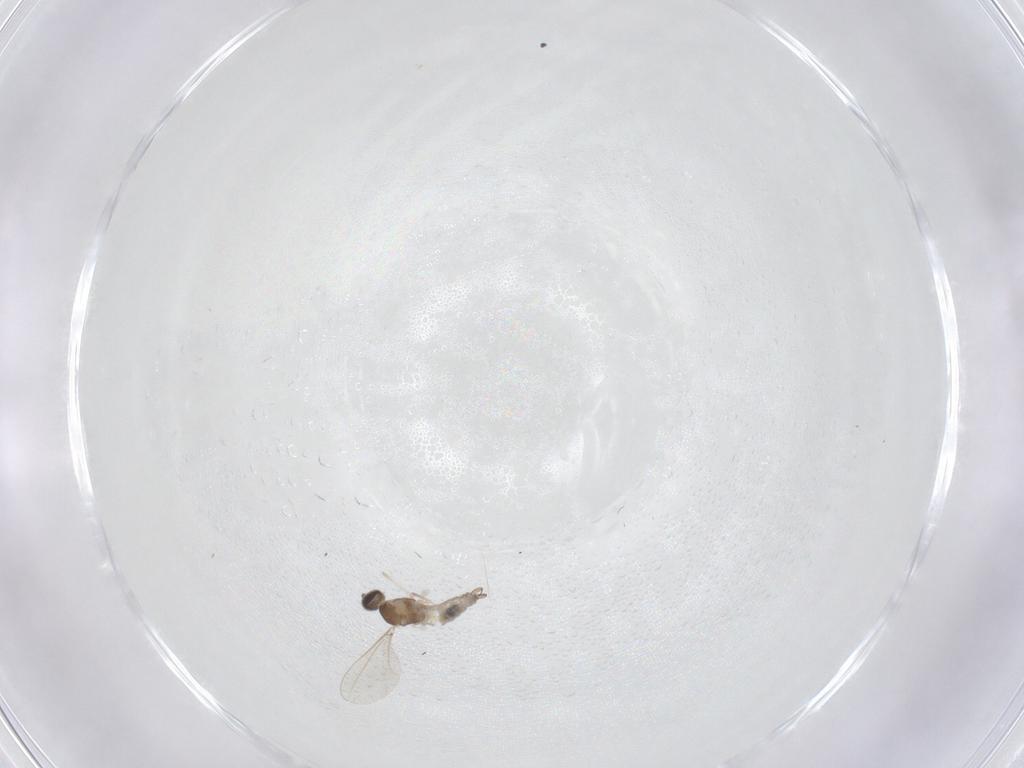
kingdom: Animalia
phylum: Arthropoda
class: Insecta
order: Diptera
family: Cecidomyiidae
